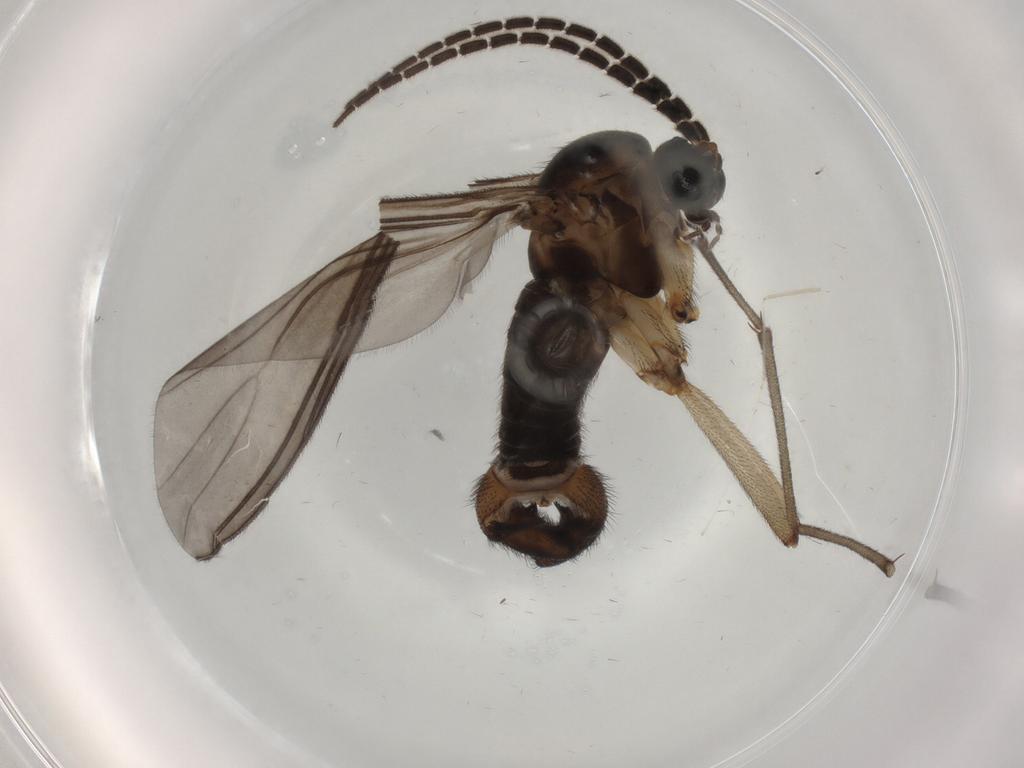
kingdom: Animalia
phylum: Arthropoda
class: Insecta
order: Diptera
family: Sciaridae
